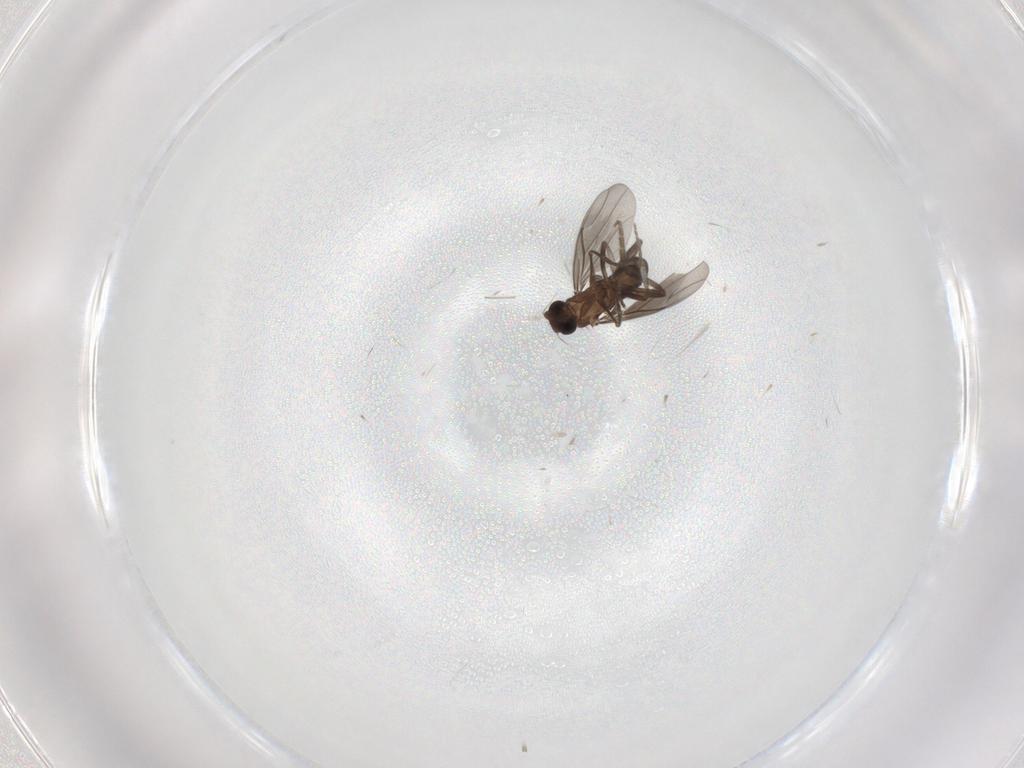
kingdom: Animalia
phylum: Arthropoda
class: Insecta
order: Diptera
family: Phoridae
